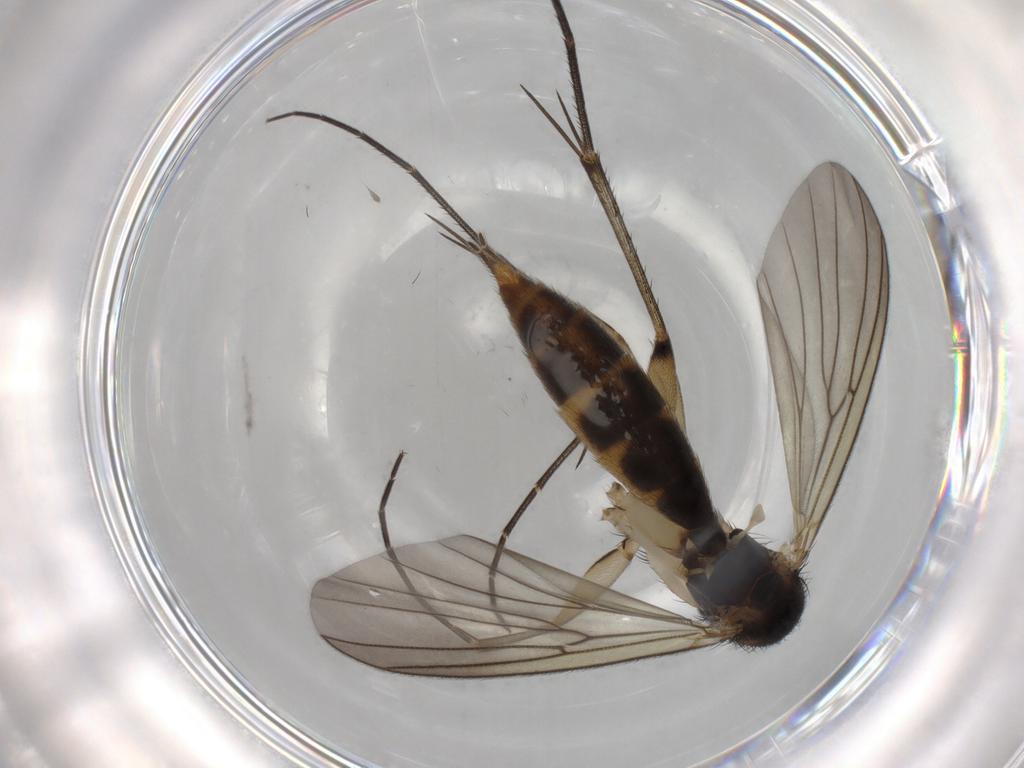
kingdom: Animalia
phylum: Arthropoda
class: Insecta
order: Diptera
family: Mycetophilidae
